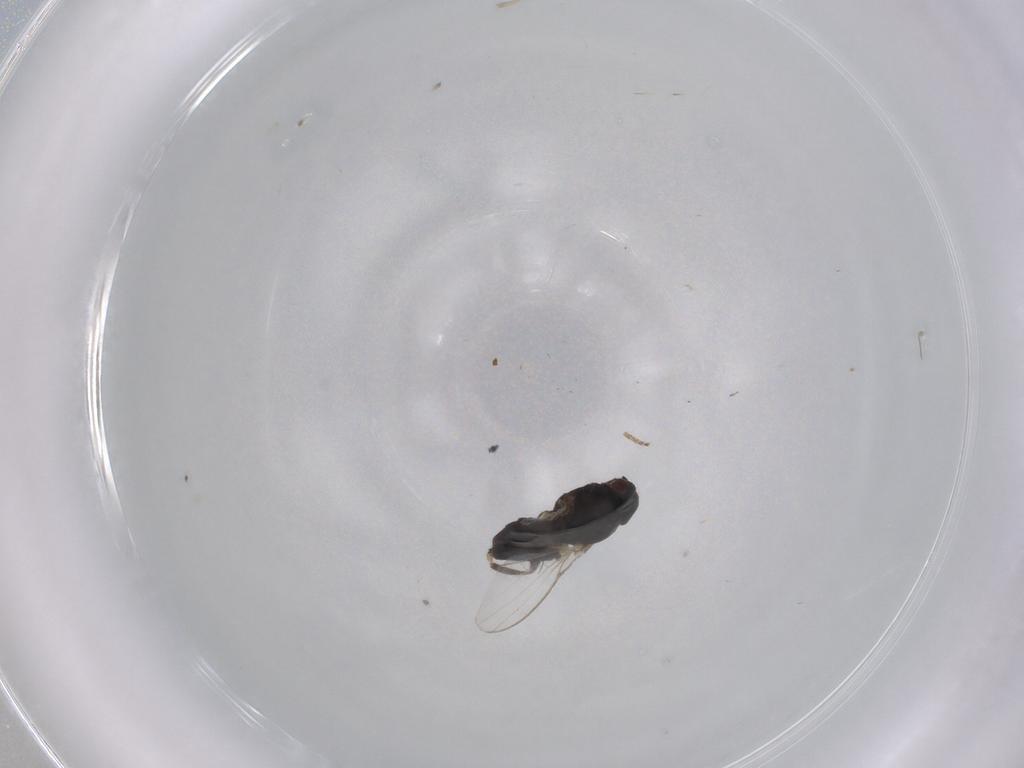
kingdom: Animalia
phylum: Arthropoda
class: Insecta
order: Diptera
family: Milichiidae
